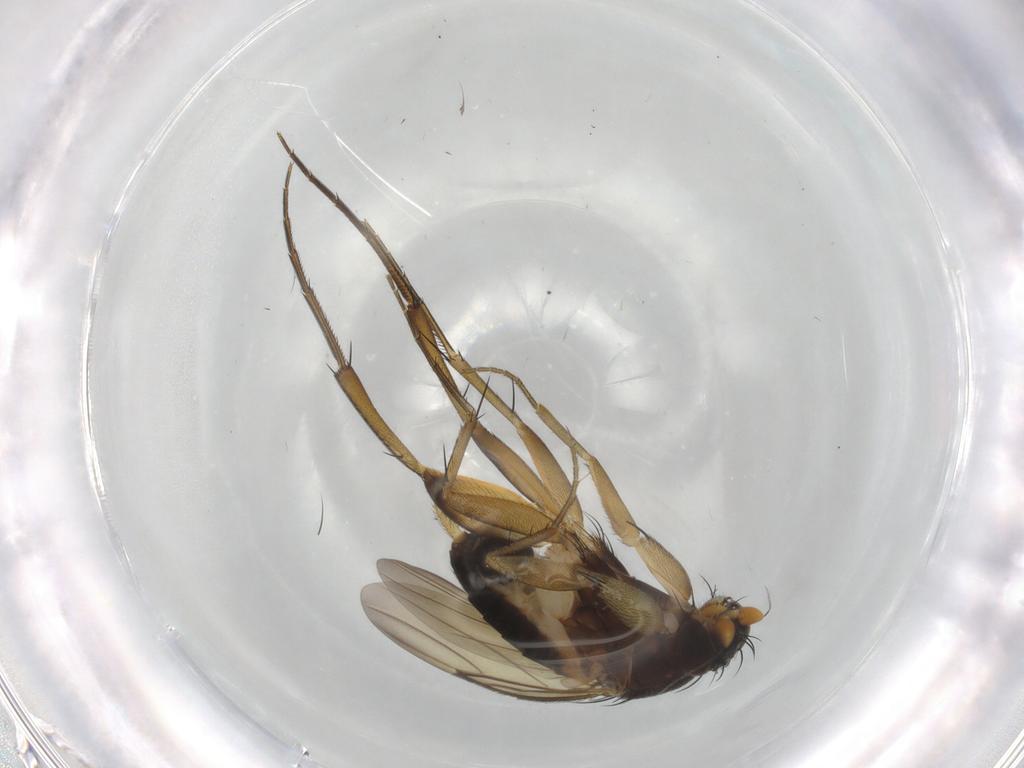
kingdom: Animalia
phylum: Arthropoda
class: Insecta
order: Diptera
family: Phoridae
